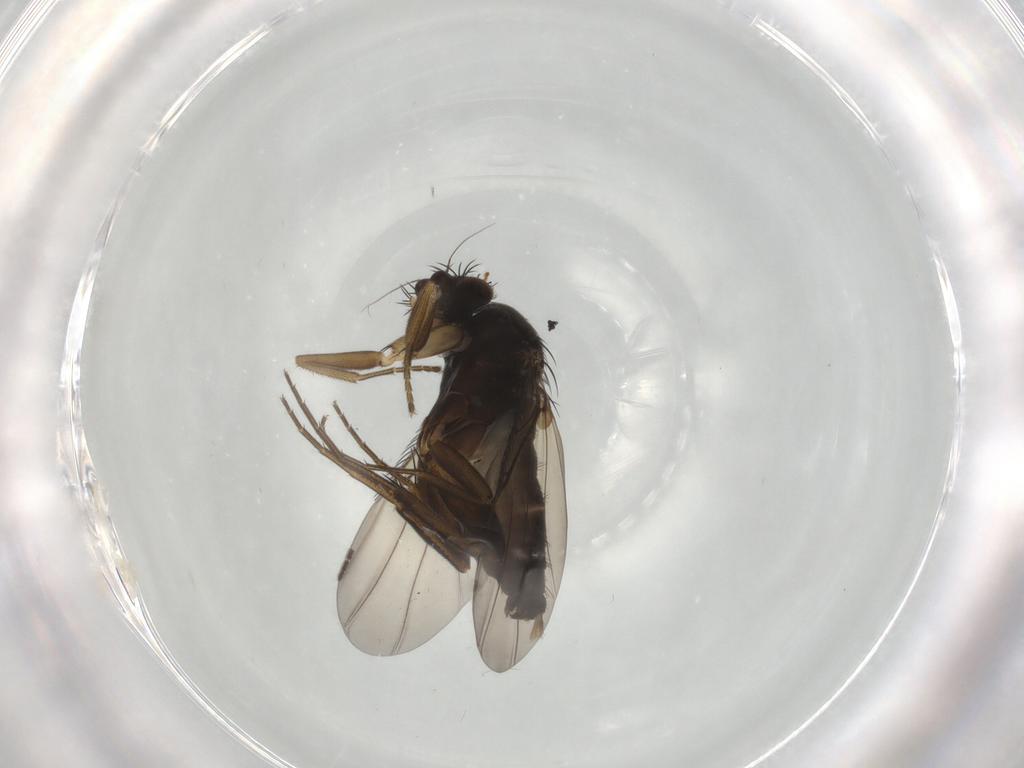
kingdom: Animalia
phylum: Arthropoda
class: Insecta
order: Diptera
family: Phoridae
